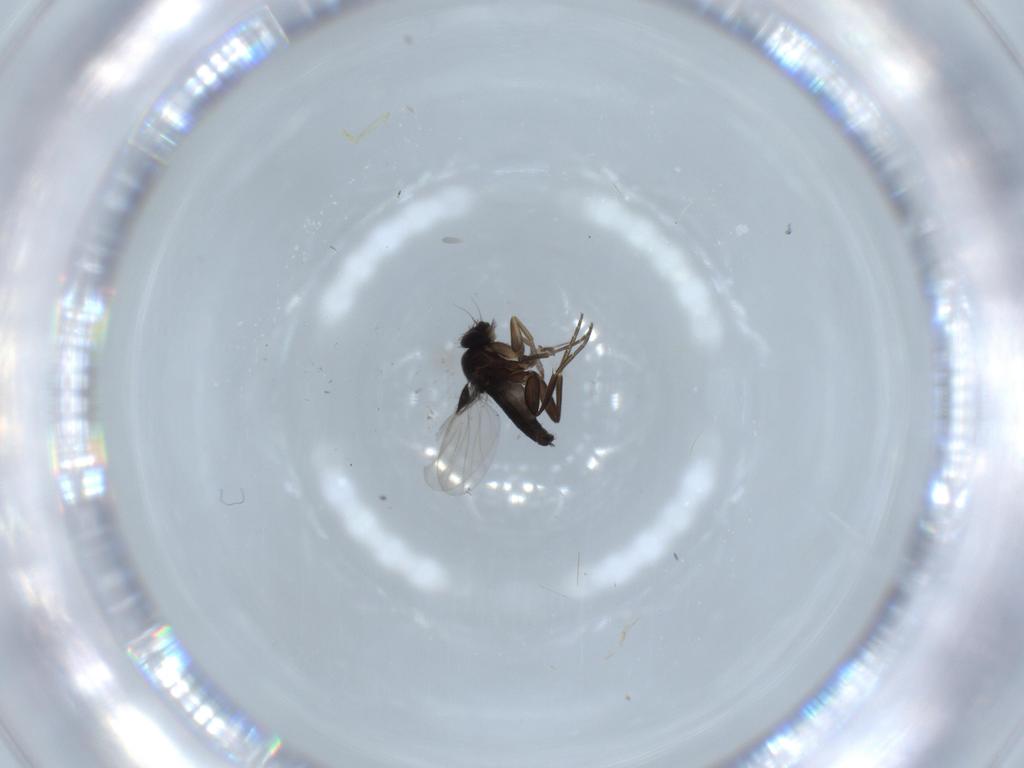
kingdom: Animalia
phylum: Arthropoda
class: Insecta
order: Diptera
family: Phoridae
